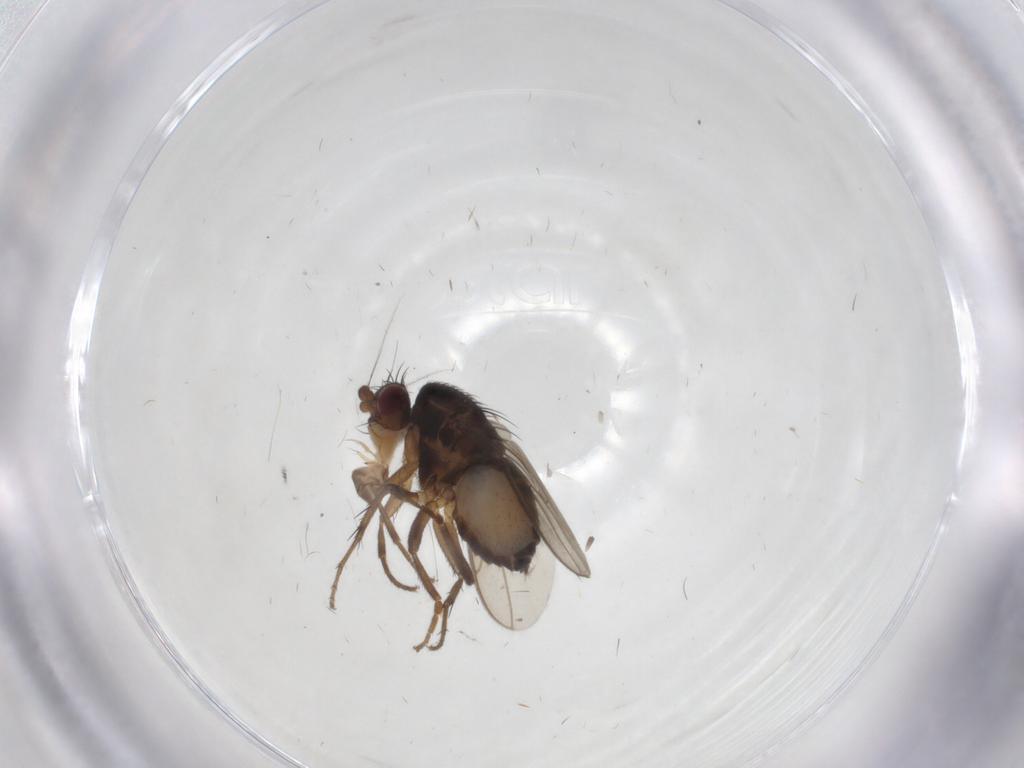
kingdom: Animalia
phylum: Arthropoda
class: Insecta
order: Diptera
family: Sphaeroceridae
